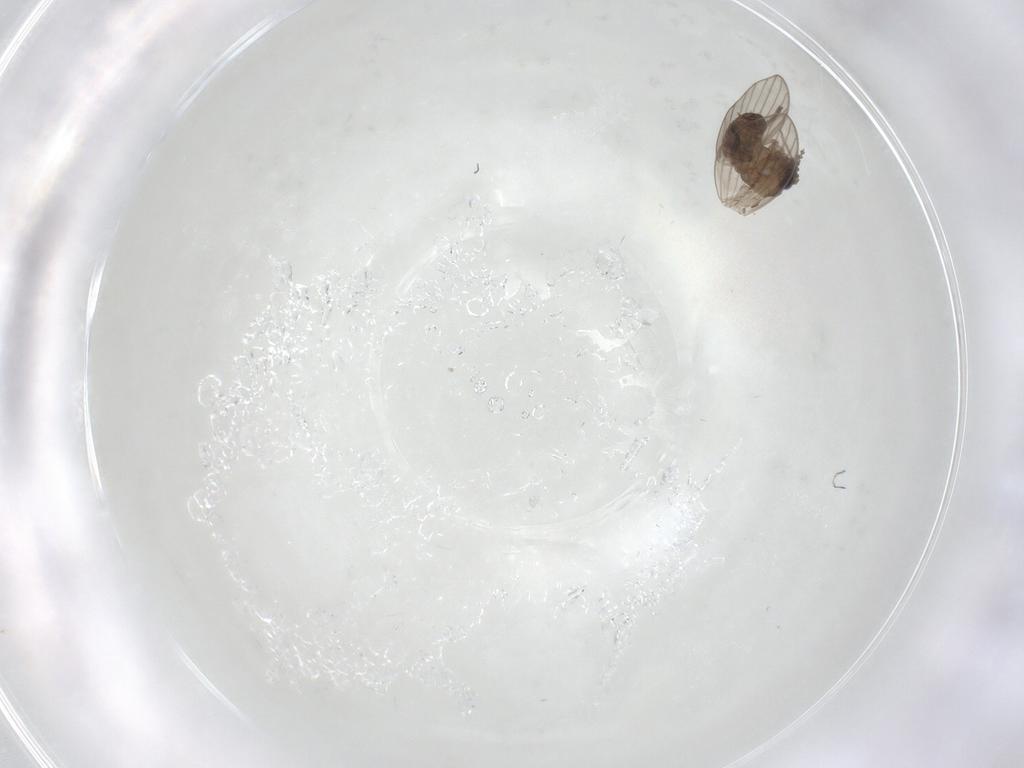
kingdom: Animalia
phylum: Arthropoda
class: Insecta
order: Diptera
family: Psychodidae
